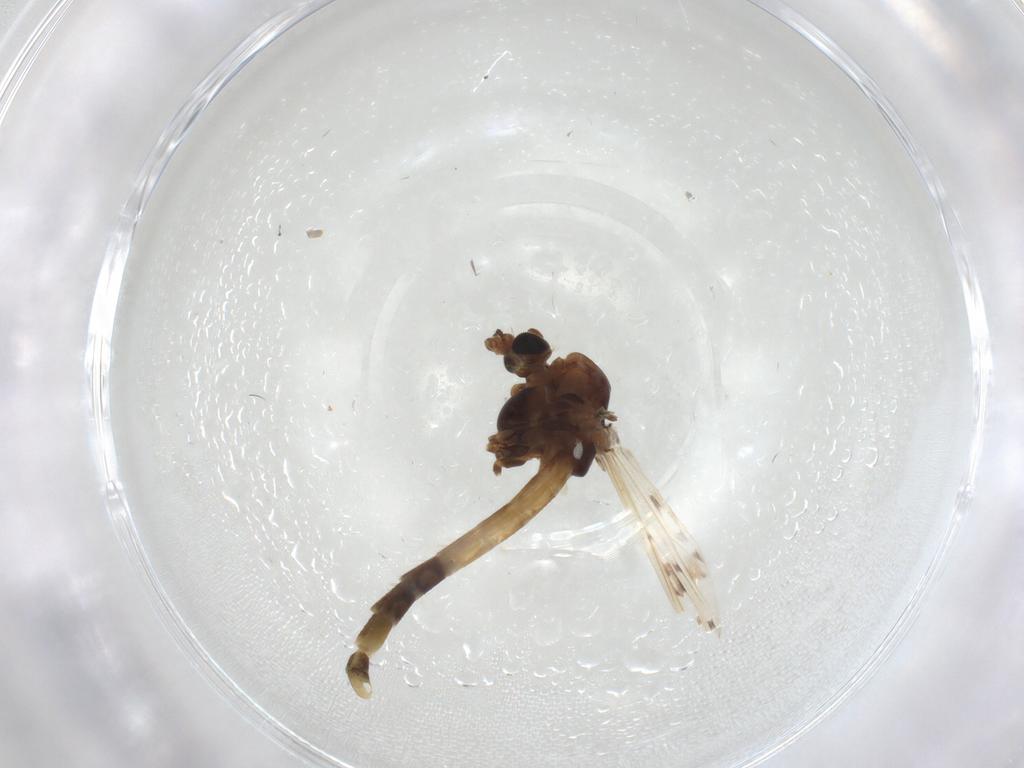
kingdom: Animalia
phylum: Arthropoda
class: Insecta
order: Diptera
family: Chironomidae
